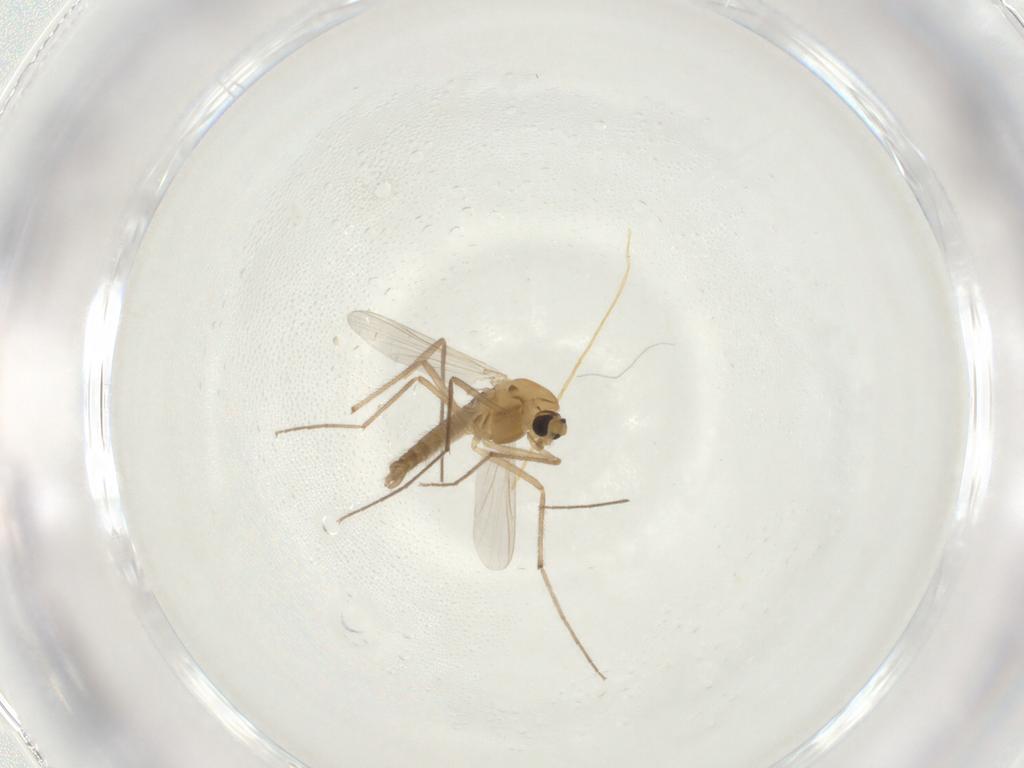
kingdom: Animalia
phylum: Arthropoda
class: Insecta
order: Diptera
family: Chironomidae
